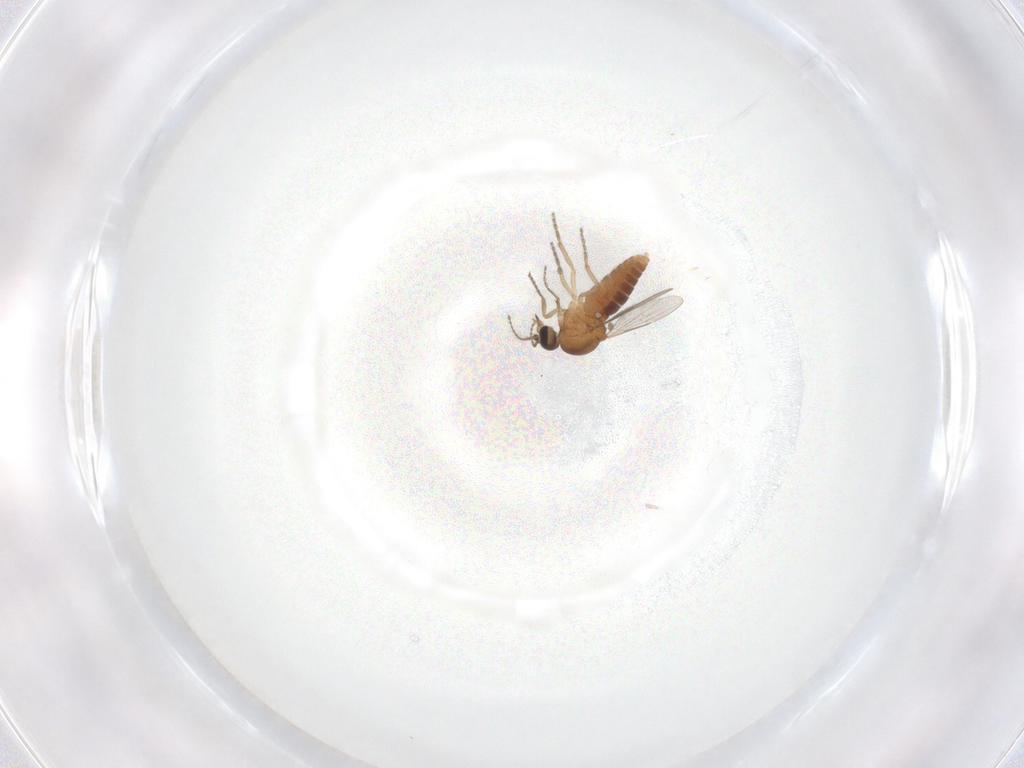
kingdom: Animalia
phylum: Arthropoda
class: Insecta
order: Diptera
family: Ceratopogonidae
